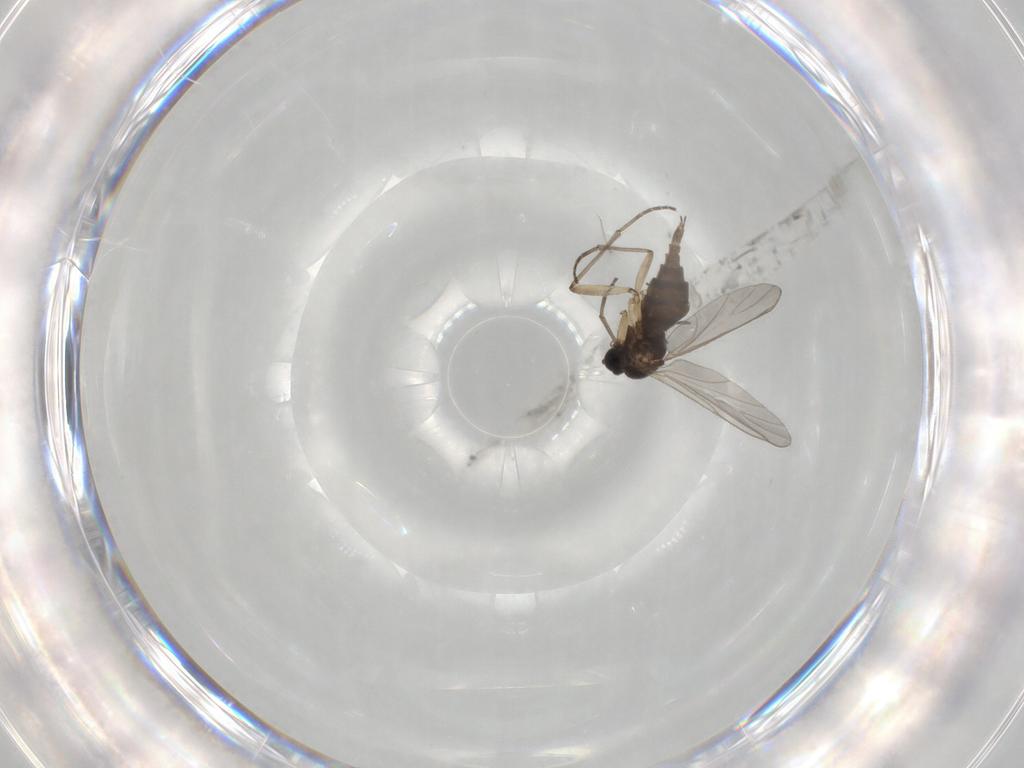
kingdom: Animalia
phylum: Arthropoda
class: Insecta
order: Diptera
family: Sciaridae
